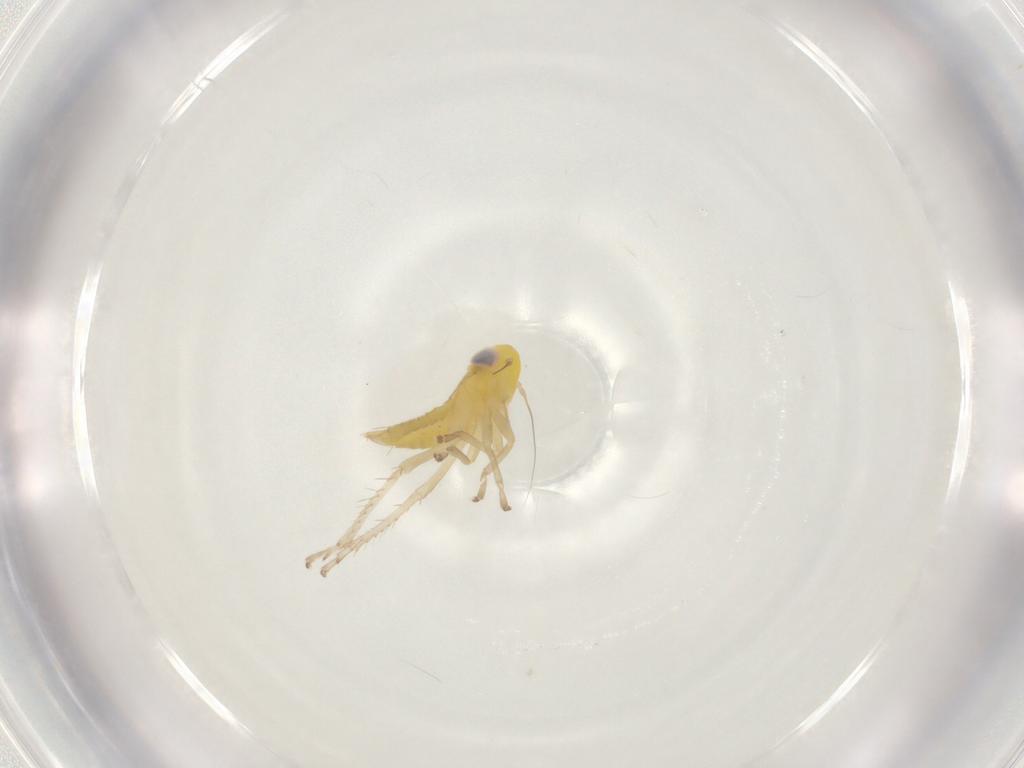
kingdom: Animalia
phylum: Arthropoda
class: Insecta
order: Hemiptera
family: Cicadellidae
